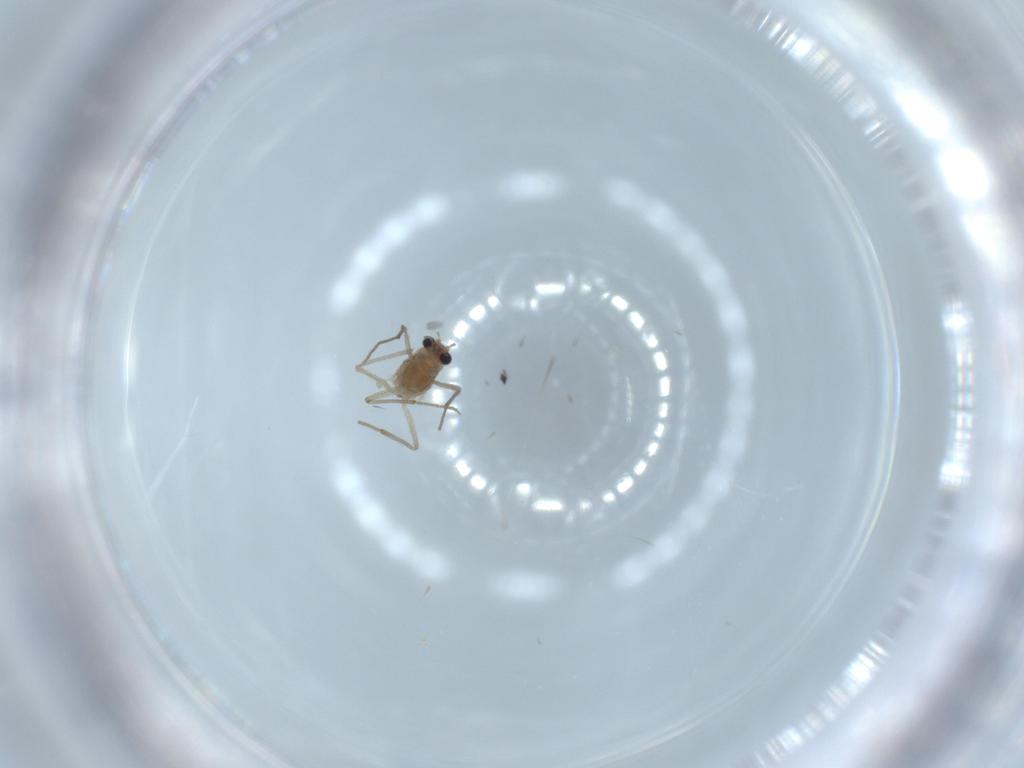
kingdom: Animalia
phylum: Arthropoda
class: Insecta
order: Diptera
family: Chironomidae
